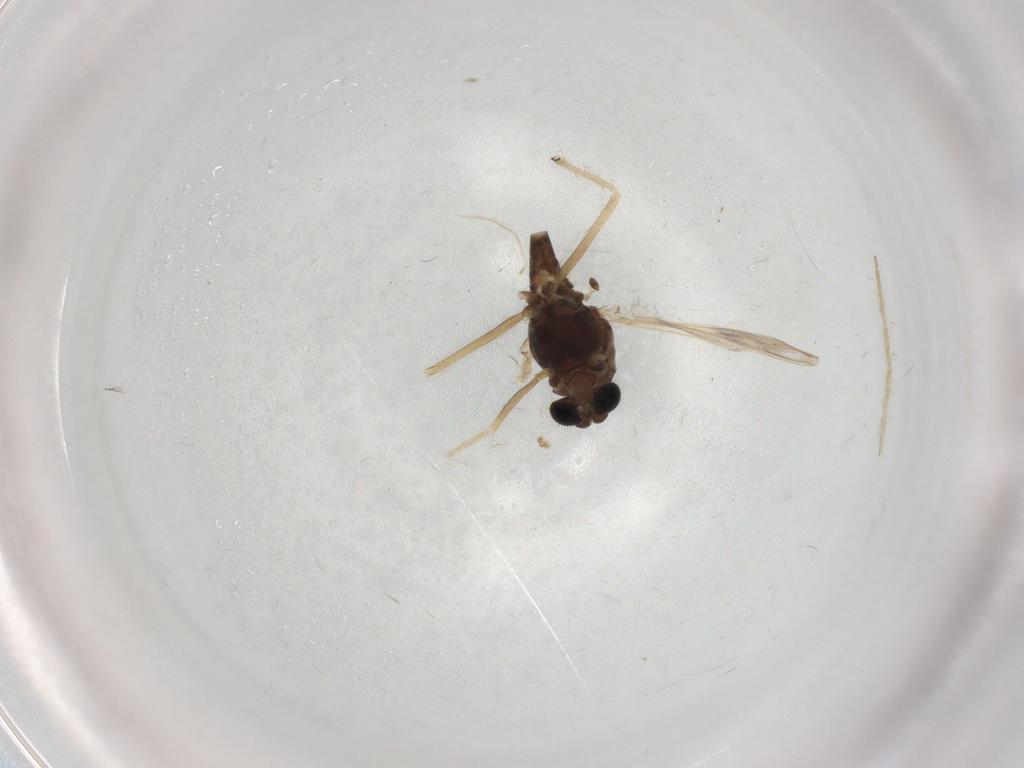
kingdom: Animalia
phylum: Arthropoda
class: Insecta
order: Diptera
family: Chironomidae
